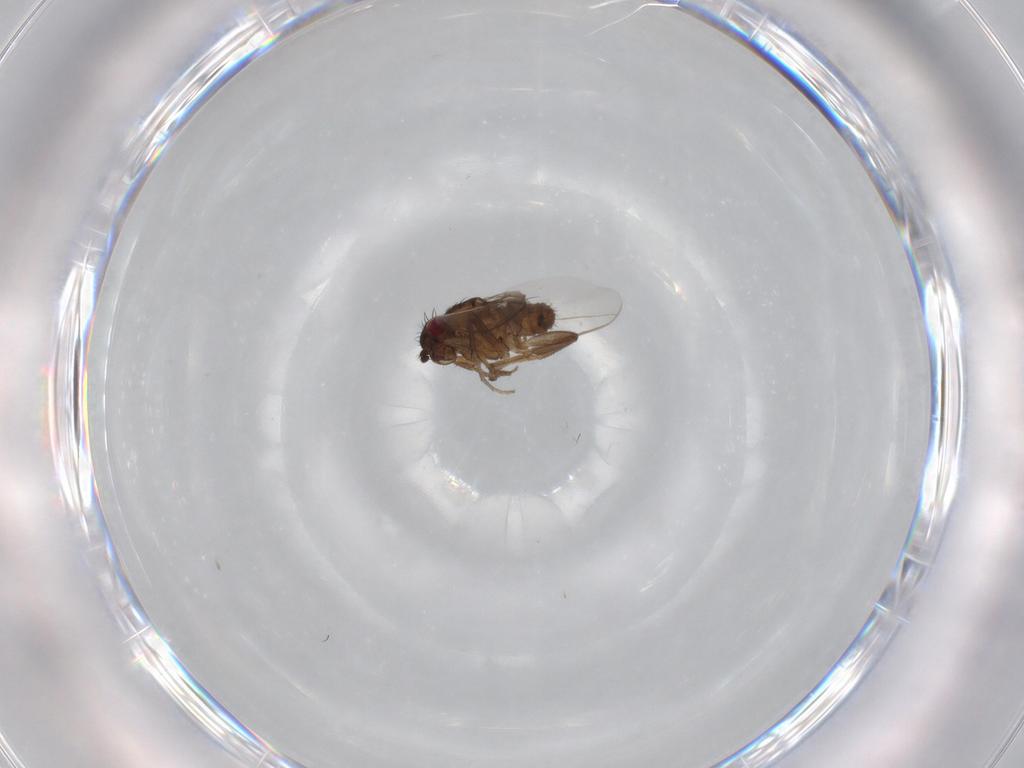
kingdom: Animalia
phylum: Arthropoda
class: Insecta
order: Diptera
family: Sphaeroceridae
